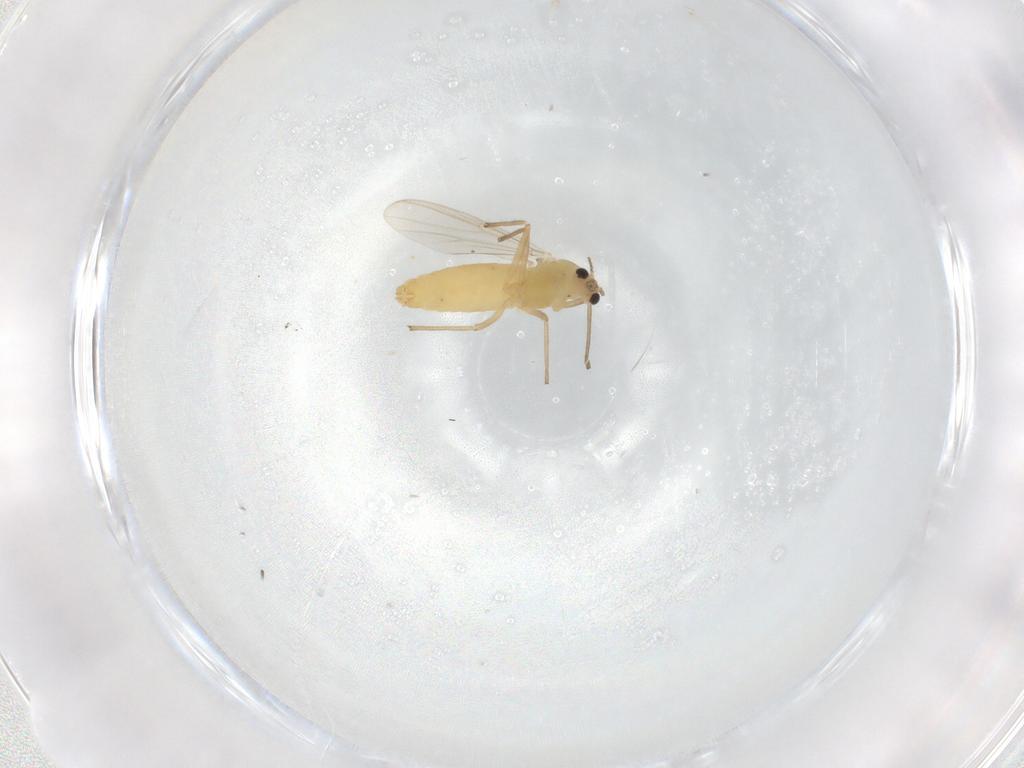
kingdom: Animalia
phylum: Arthropoda
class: Insecta
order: Diptera
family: Chironomidae
